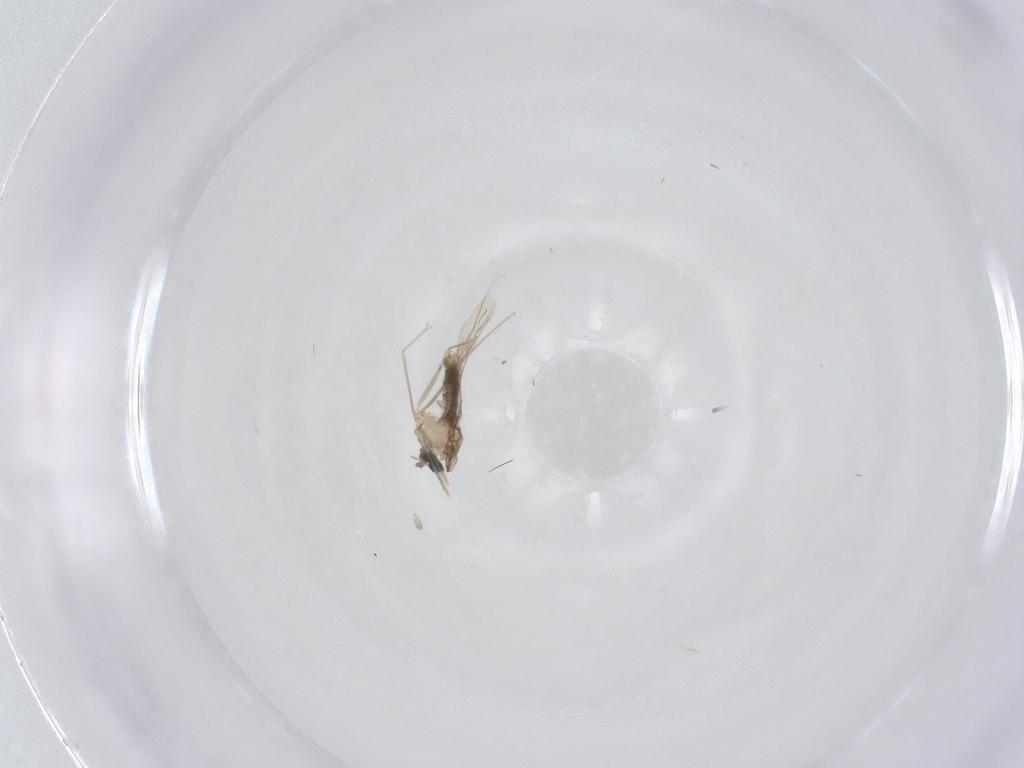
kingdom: Animalia
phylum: Arthropoda
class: Insecta
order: Diptera
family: Cecidomyiidae
